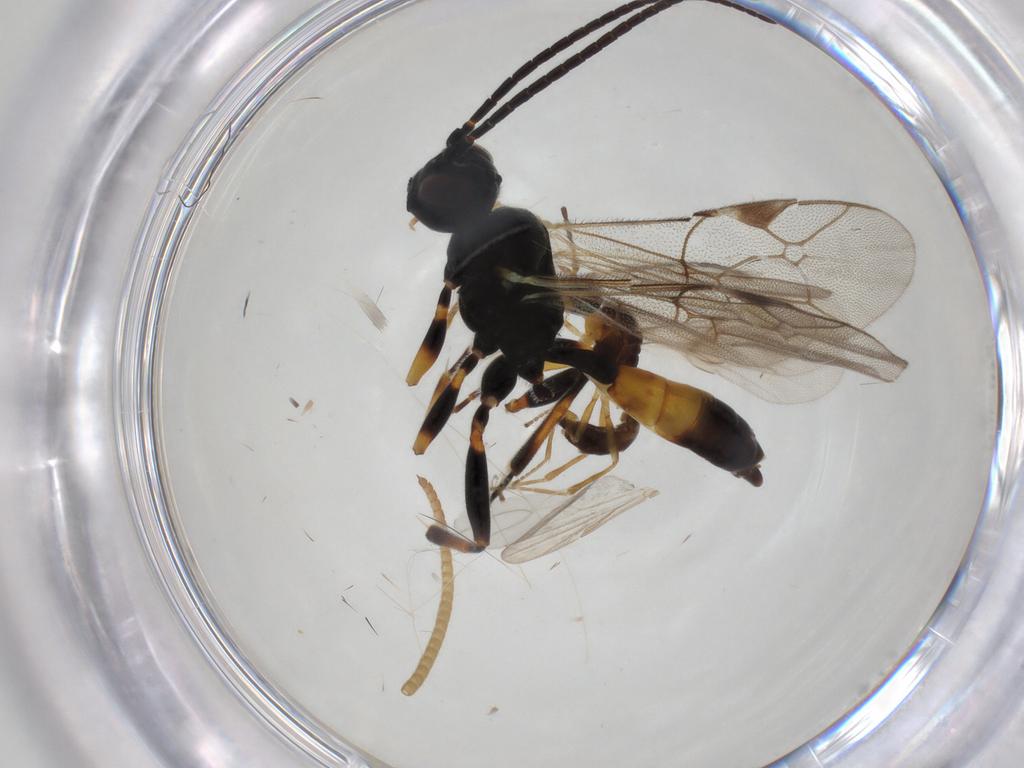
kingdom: Animalia
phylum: Arthropoda
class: Insecta
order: Hymenoptera
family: Ichneumonidae
